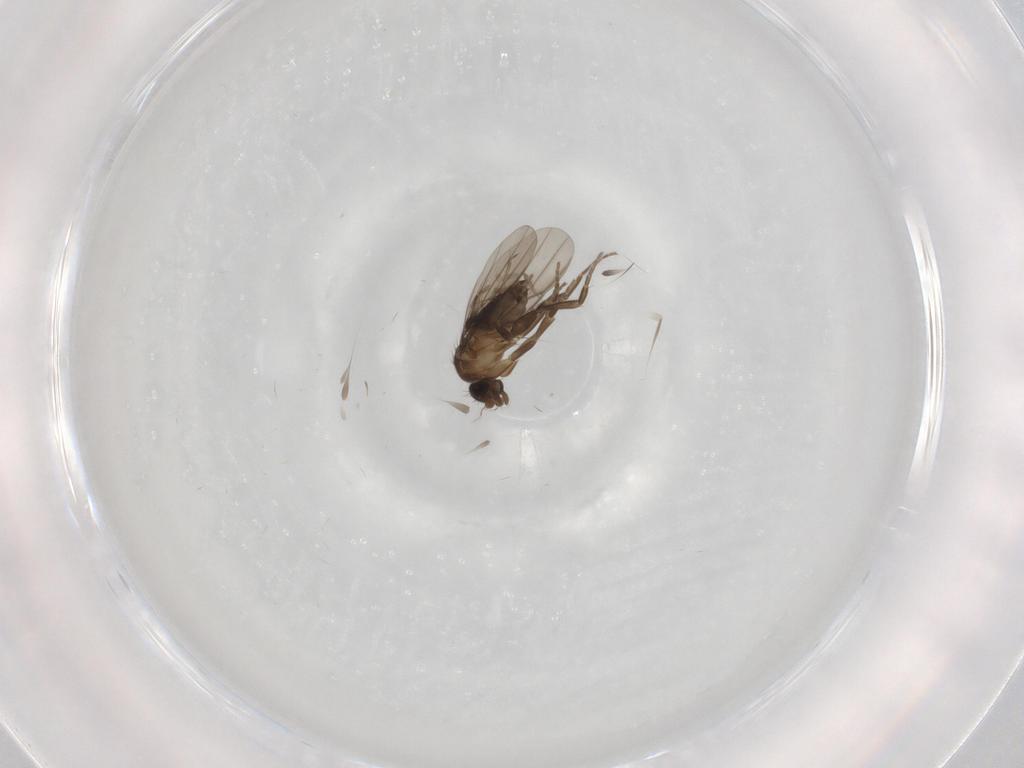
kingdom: Animalia
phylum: Arthropoda
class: Insecta
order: Diptera
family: Phoridae
